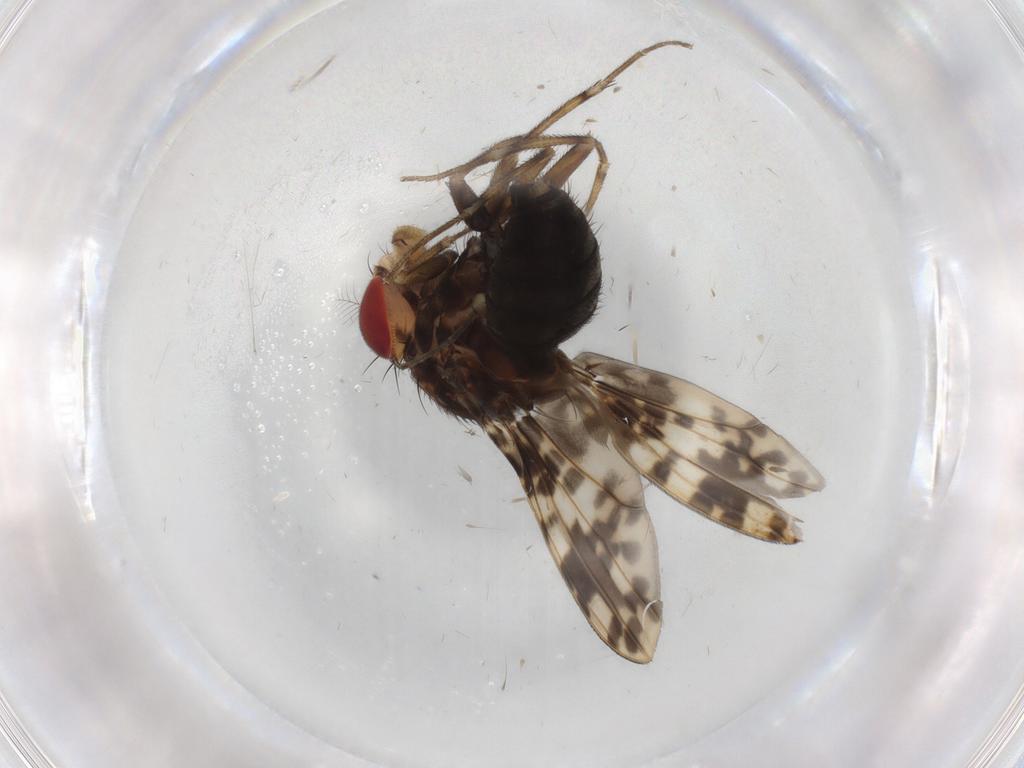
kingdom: Animalia
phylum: Arthropoda
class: Insecta
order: Diptera
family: Drosophilidae
